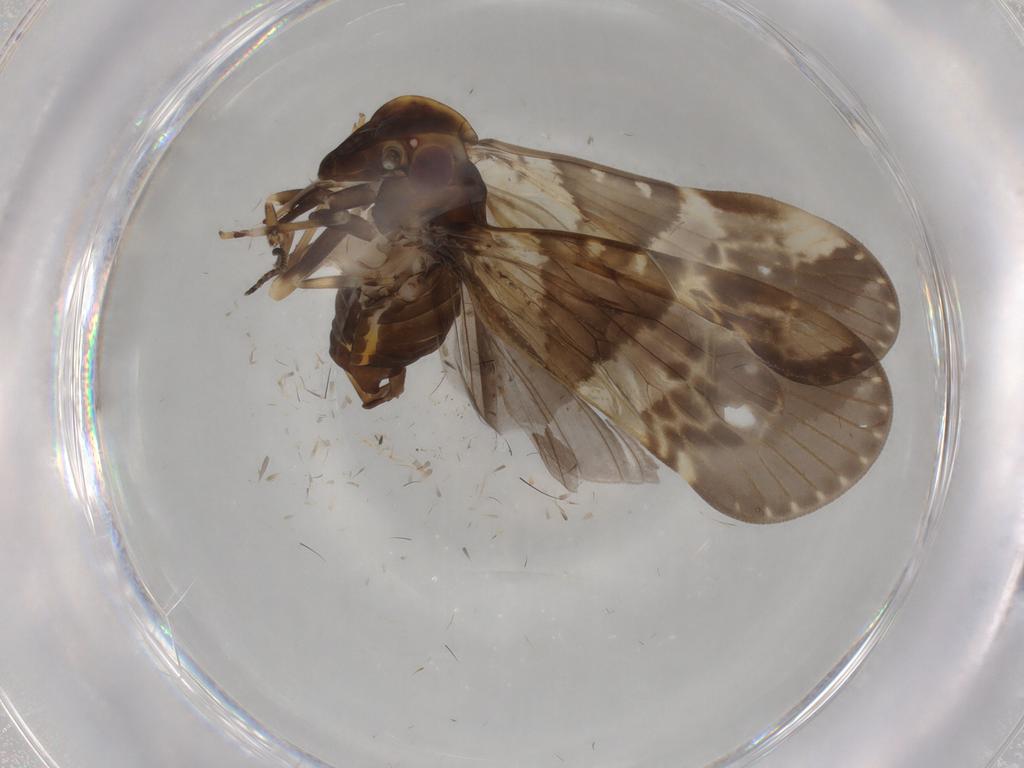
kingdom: Animalia
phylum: Arthropoda
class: Insecta
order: Hemiptera
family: Cixiidae
